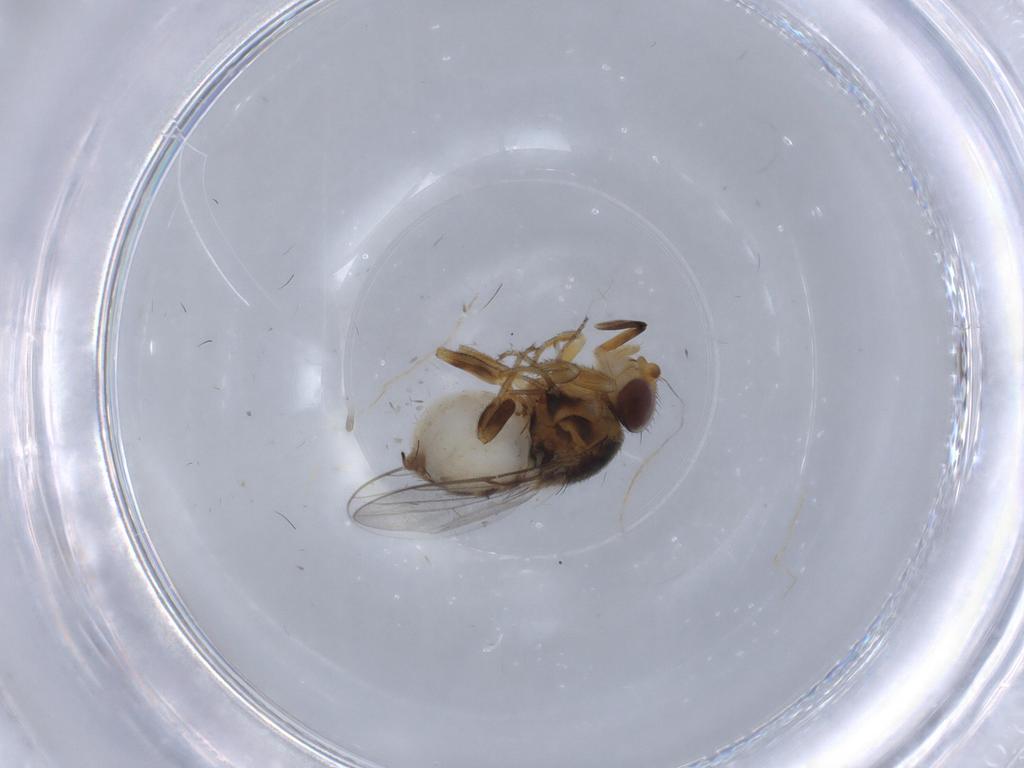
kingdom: Animalia
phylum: Arthropoda
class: Insecta
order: Diptera
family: Chloropidae
